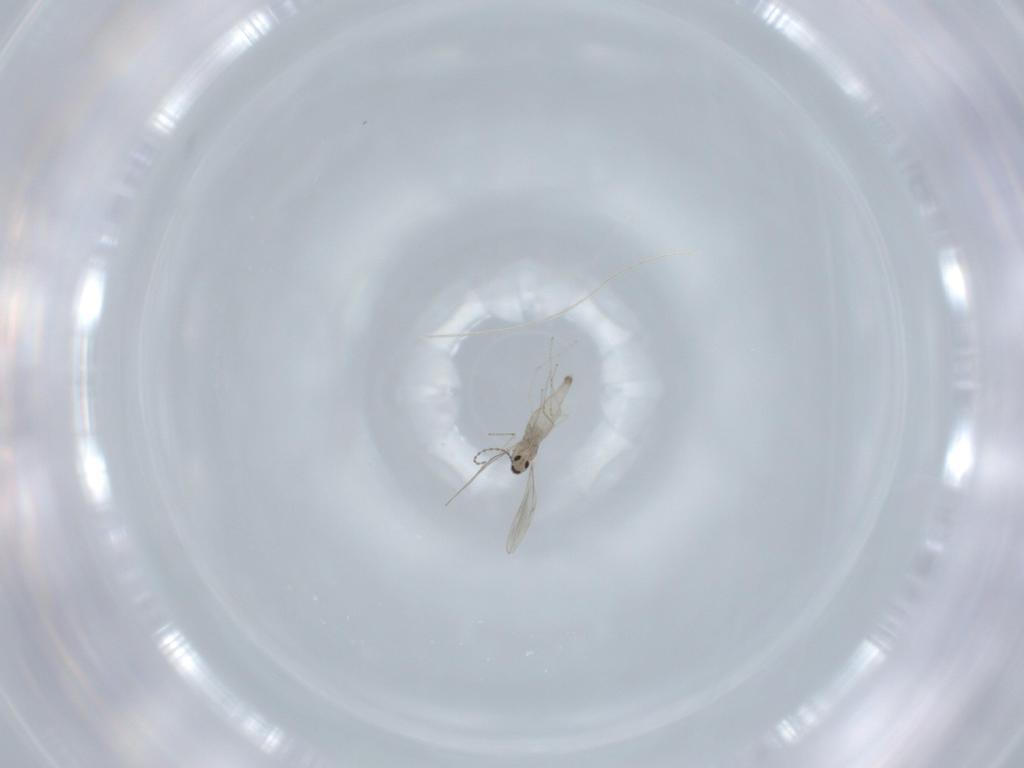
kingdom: Animalia
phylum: Arthropoda
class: Insecta
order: Diptera
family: Cecidomyiidae
